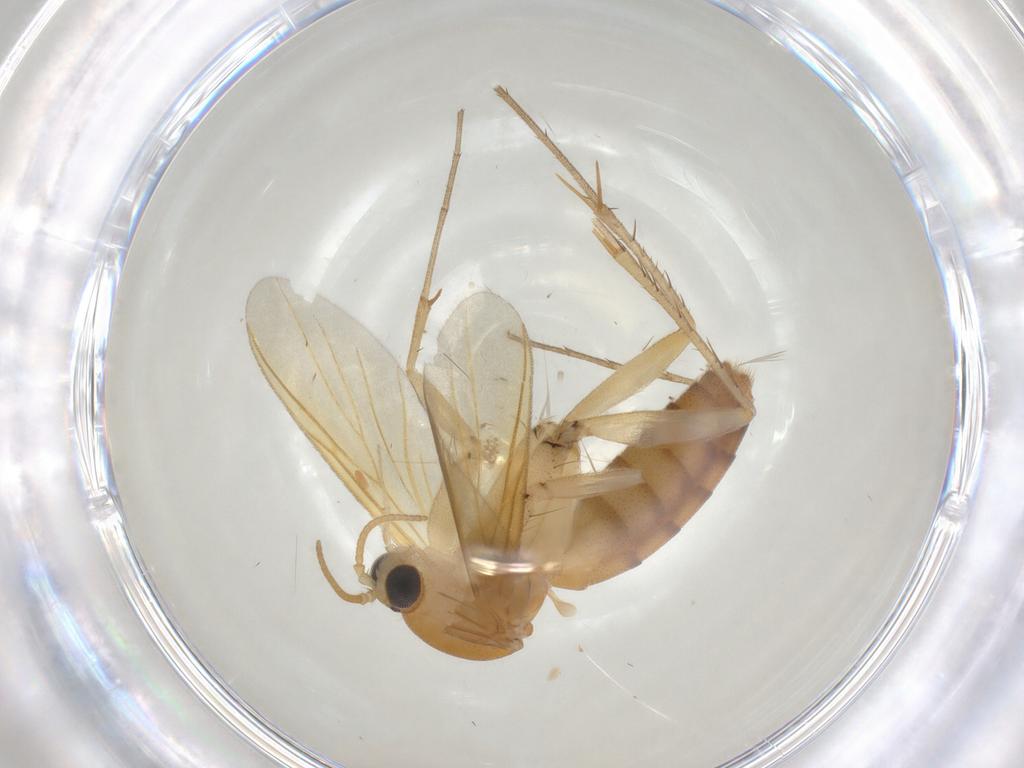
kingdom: Animalia
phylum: Arthropoda
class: Insecta
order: Diptera
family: Mycetophilidae
